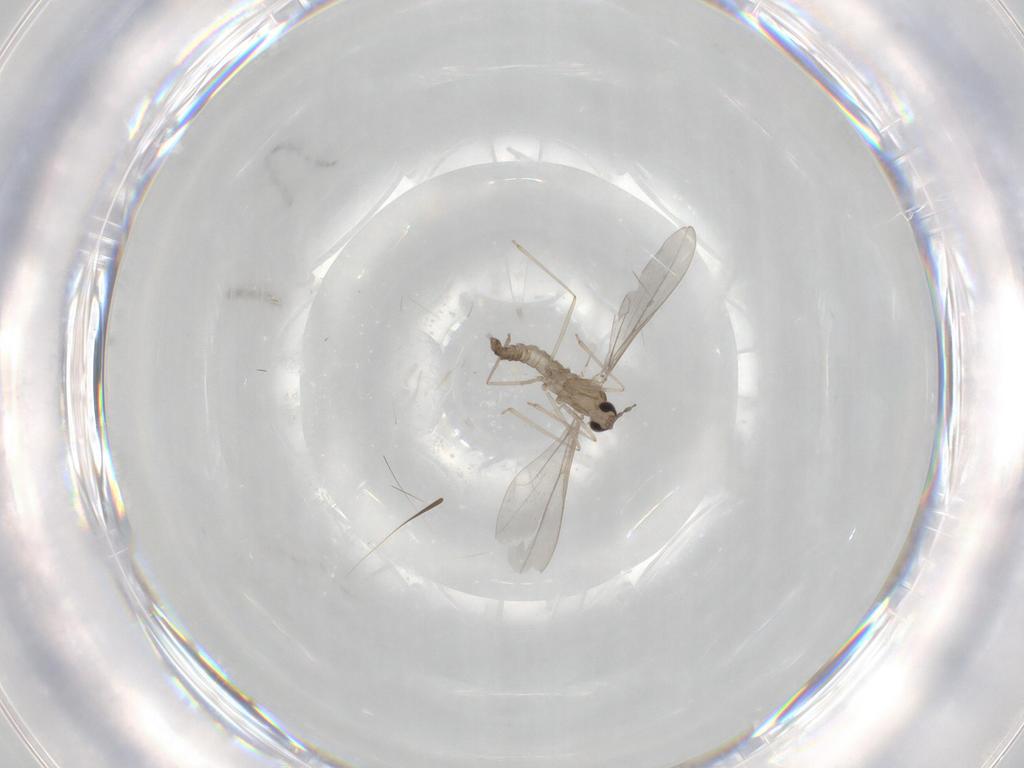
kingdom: Animalia
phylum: Arthropoda
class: Insecta
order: Diptera
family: Cecidomyiidae
